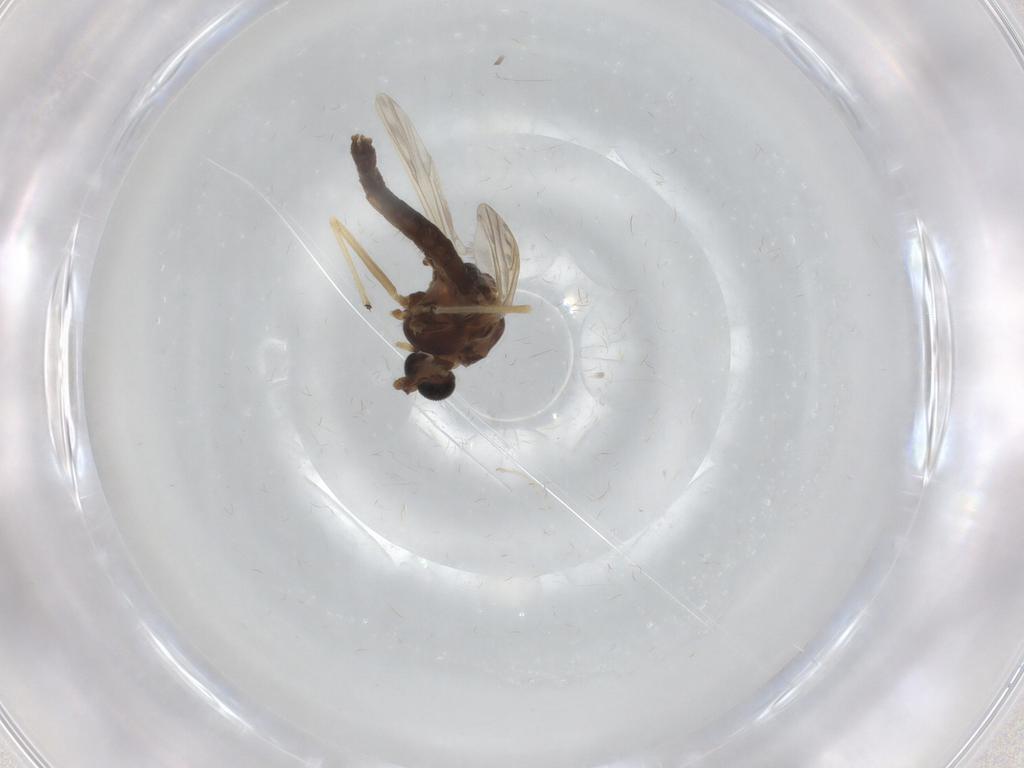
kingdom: Animalia
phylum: Arthropoda
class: Insecta
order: Diptera
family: Chironomidae
